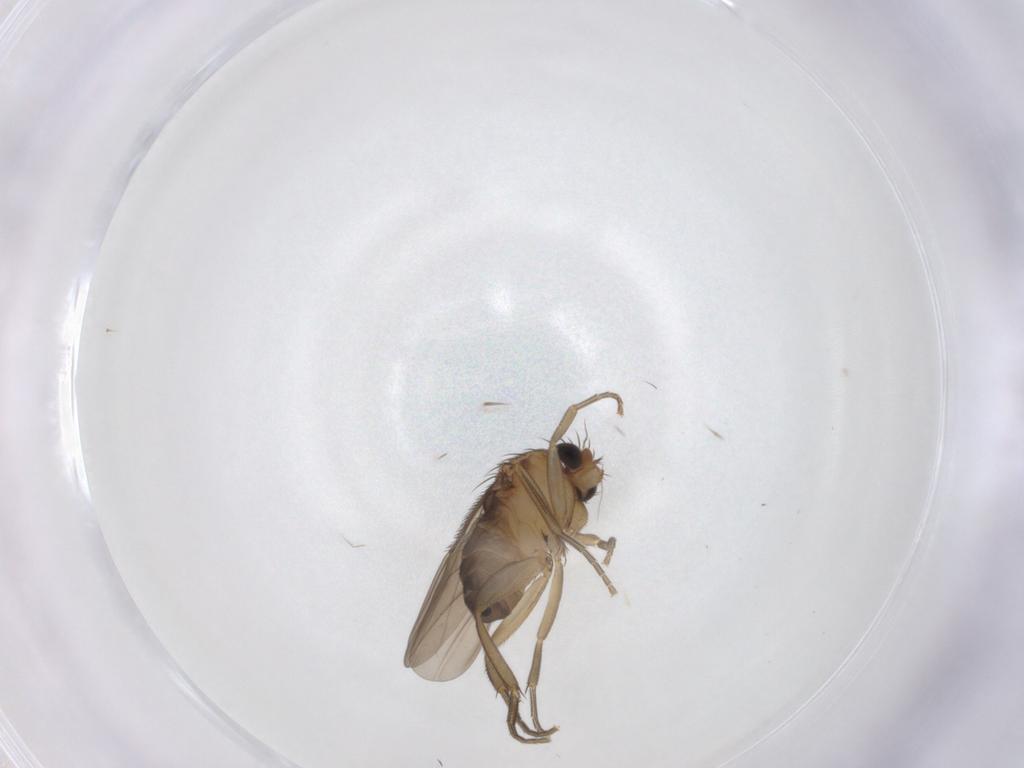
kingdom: Animalia
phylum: Arthropoda
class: Insecta
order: Diptera
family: Phoridae
